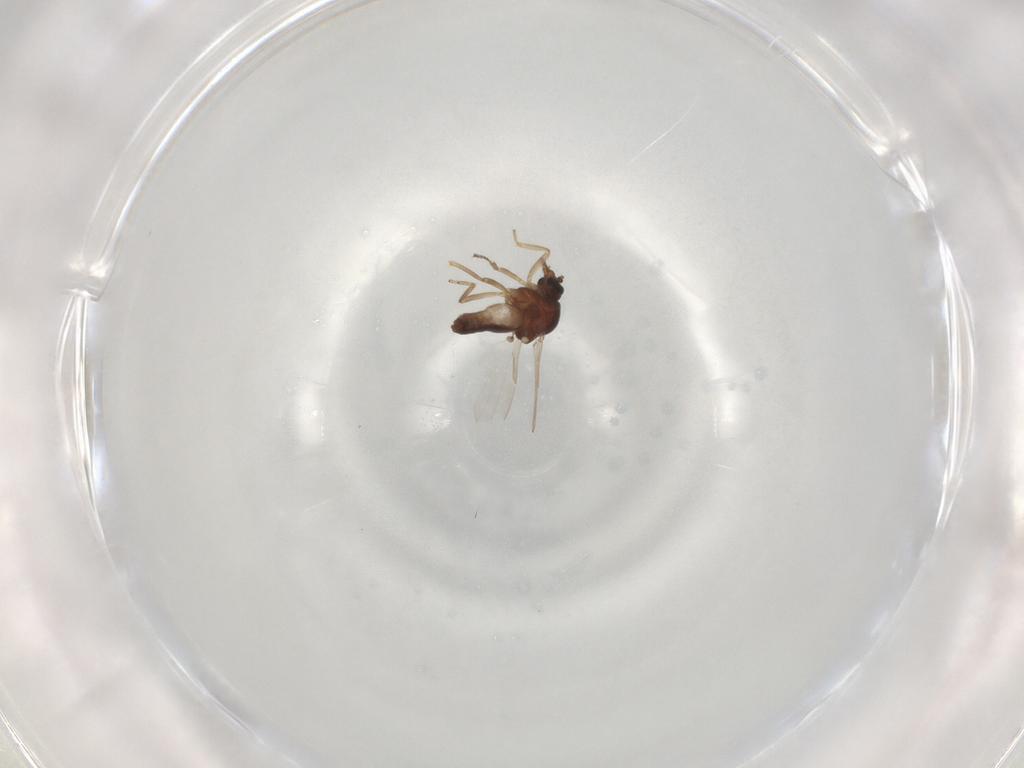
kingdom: Animalia
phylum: Arthropoda
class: Insecta
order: Diptera
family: Ceratopogonidae
